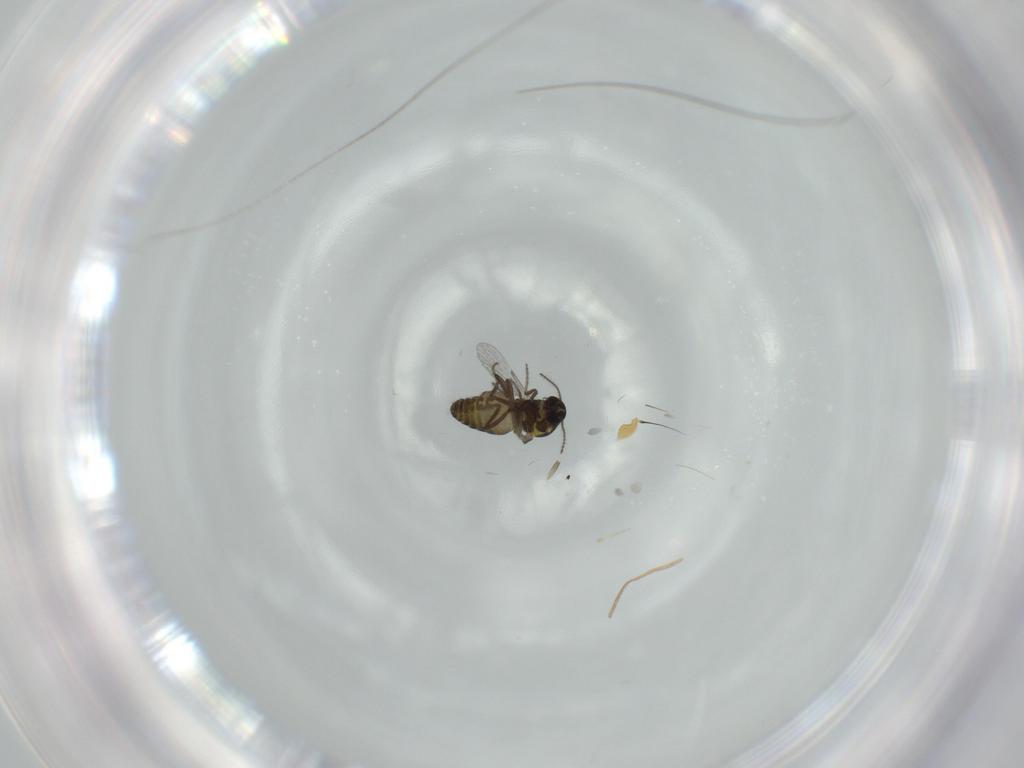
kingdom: Animalia
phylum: Arthropoda
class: Insecta
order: Diptera
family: Ceratopogonidae
